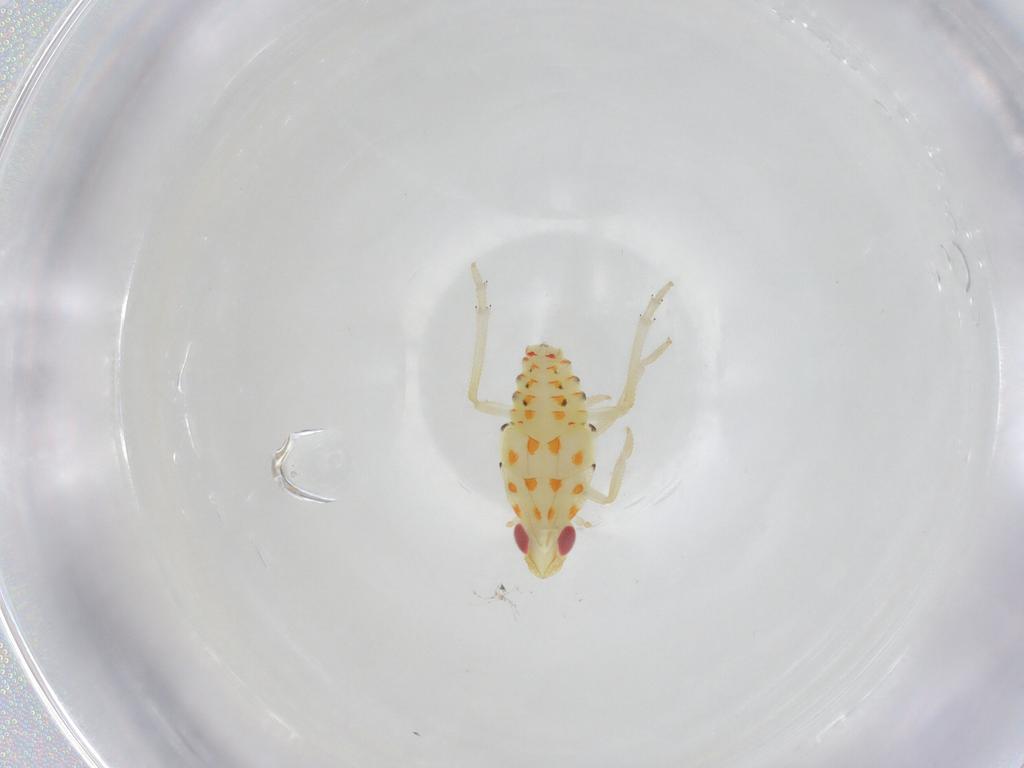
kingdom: Animalia
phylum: Arthropoda
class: Insecta
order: Hemiptera
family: Tropiduchidae
